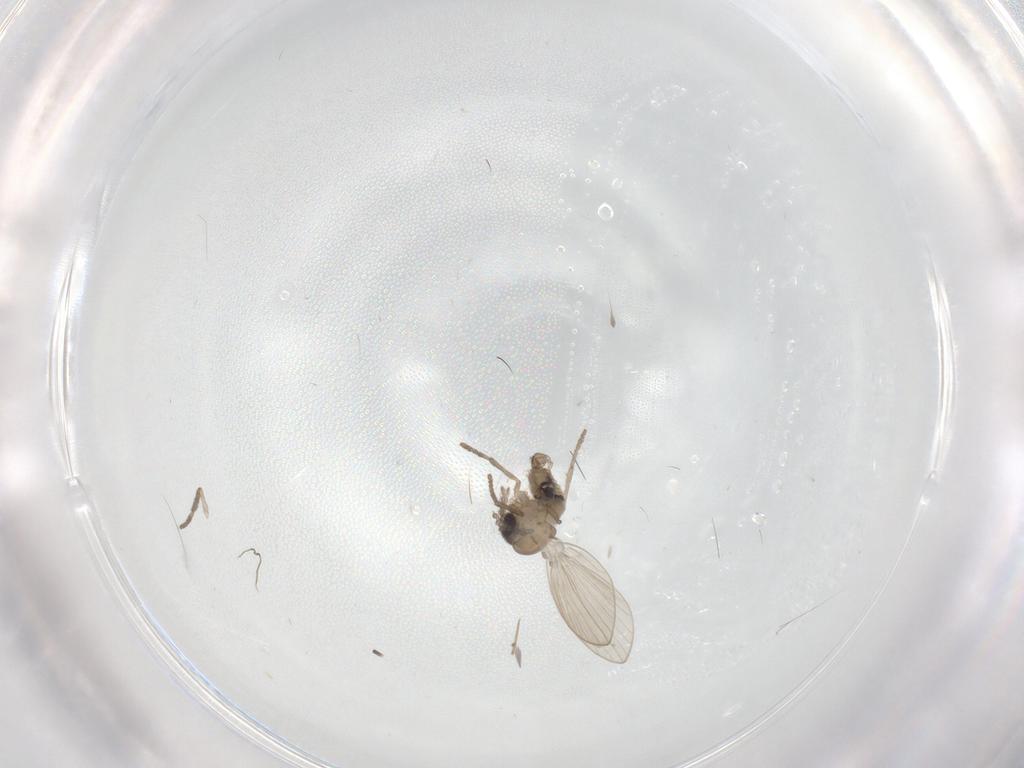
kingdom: Animalia
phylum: Arthropoda
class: Insecta
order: Diptera
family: Psychodidae
